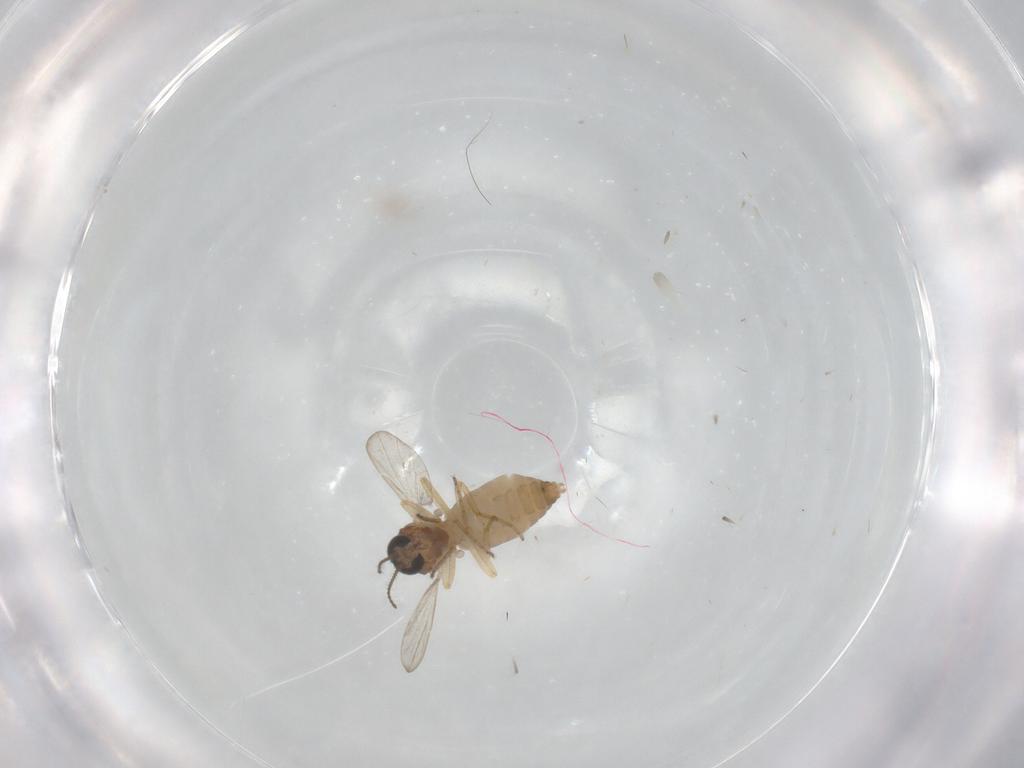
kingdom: Animalia
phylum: Arthropoda
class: Insecta
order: Diptera
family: Ceratopogonidae
